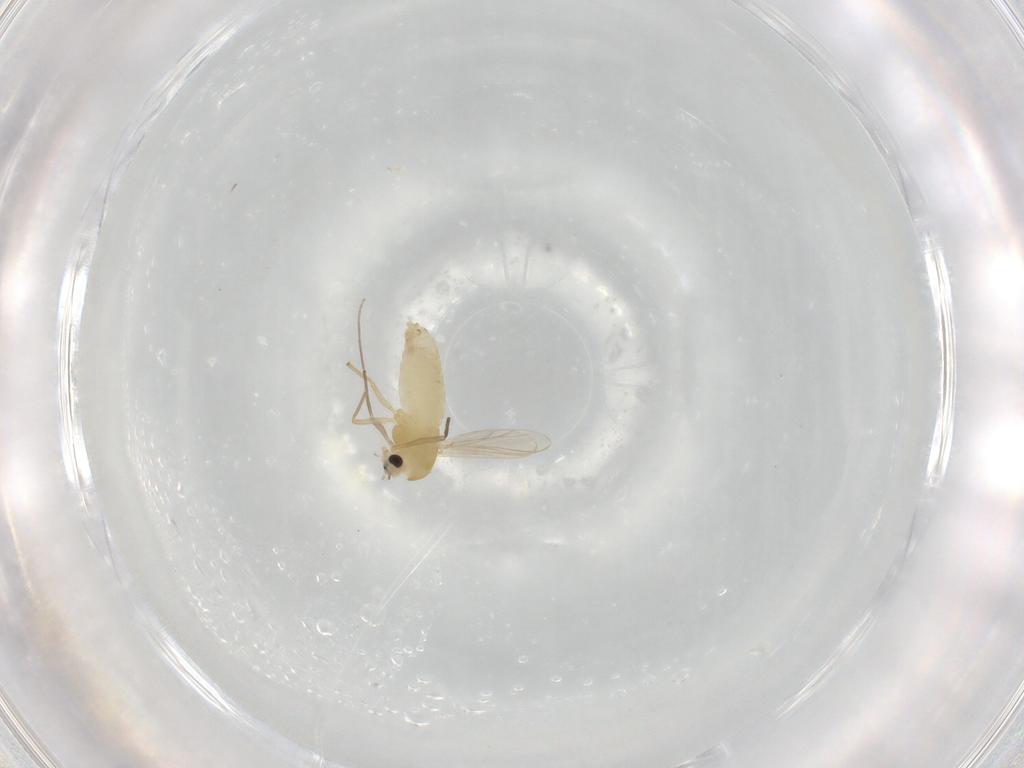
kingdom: Animalia
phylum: Arthropoda
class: Insecta
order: Diptera
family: Chironomidae
